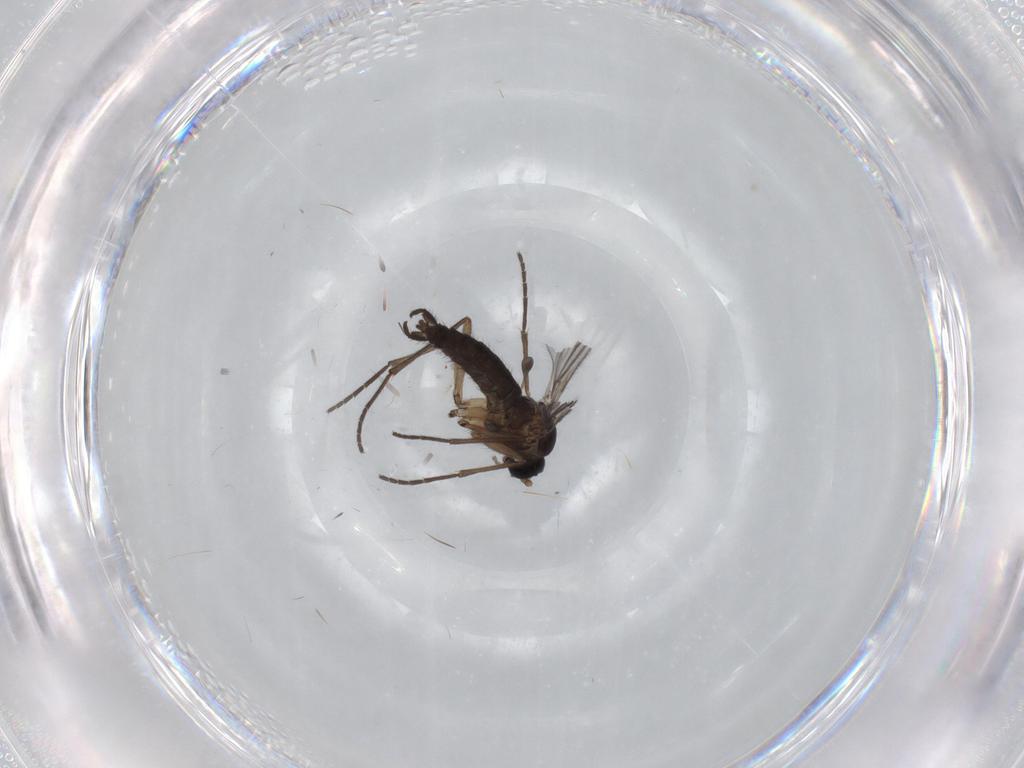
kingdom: Animalia
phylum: Arthropoda
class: Insecta
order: Diptera
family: Sciaridae
